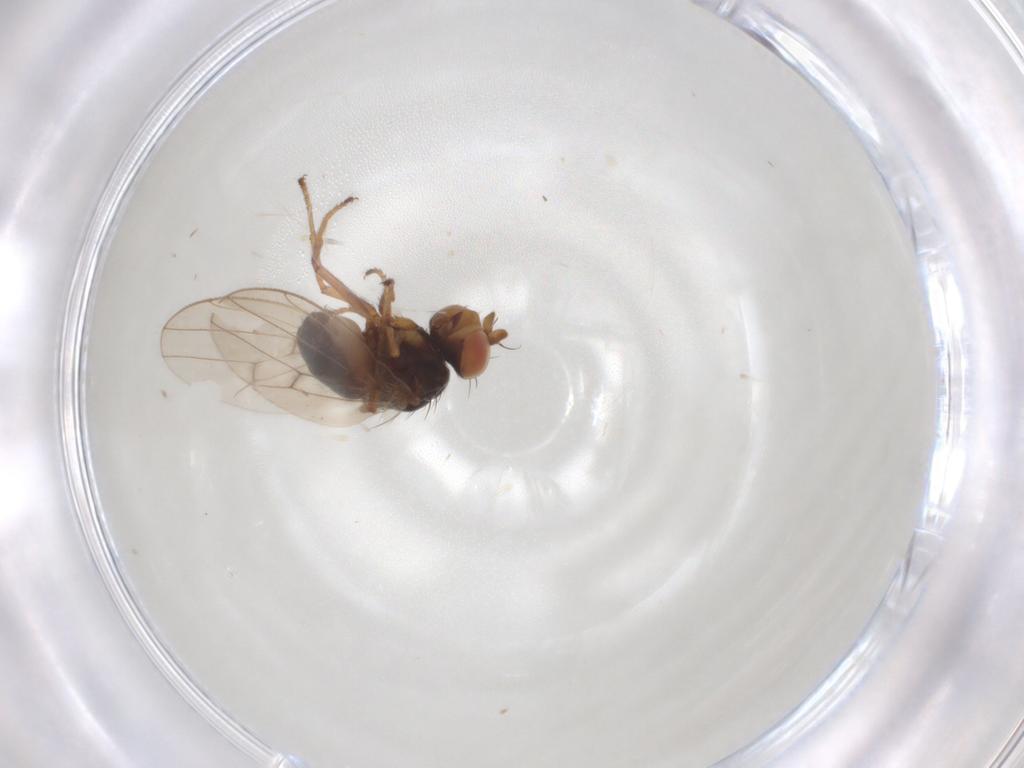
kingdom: Animalia
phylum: Arthropoda
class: Insecta
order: Diptera
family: Ephydridae
